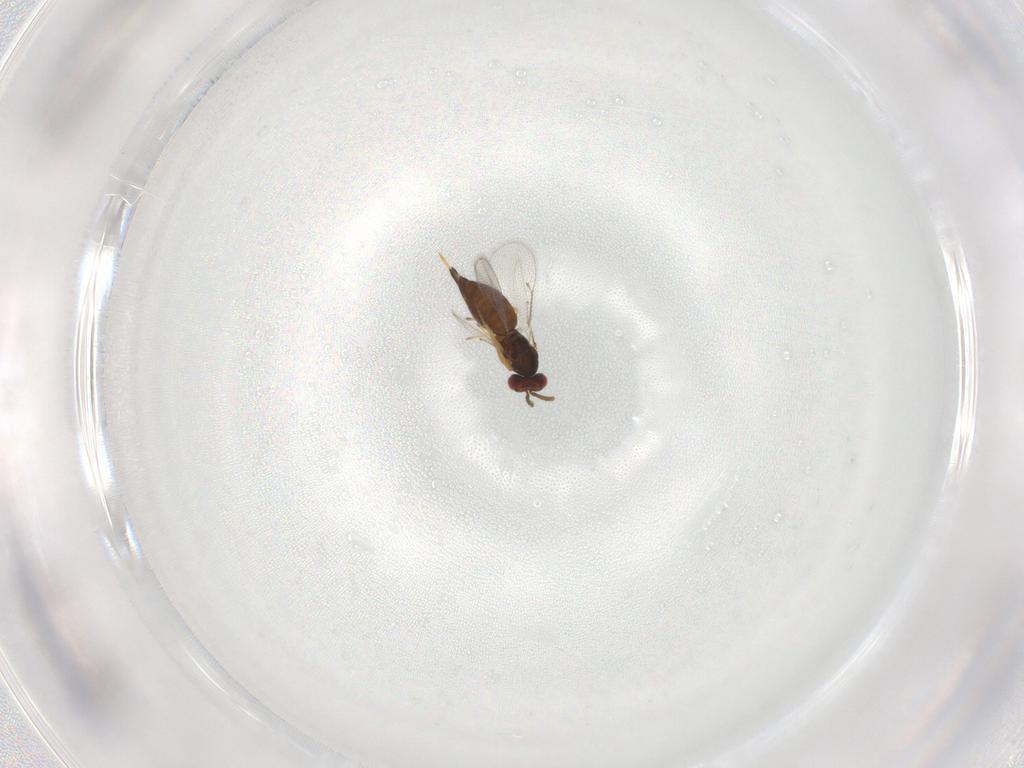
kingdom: Animalia
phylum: Arthropoda
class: Insecta
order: Hymenoptera
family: Eulophidae
